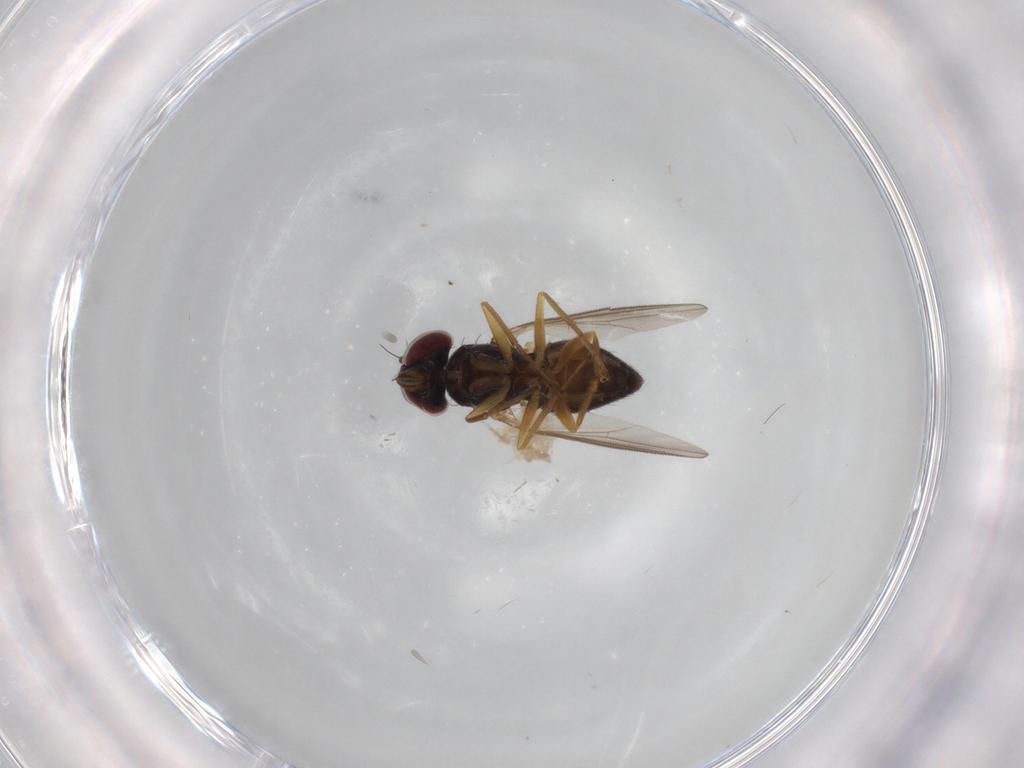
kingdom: Animalia
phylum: Arthropoda
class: Insecta
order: Diptera
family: Dolichopodidae
